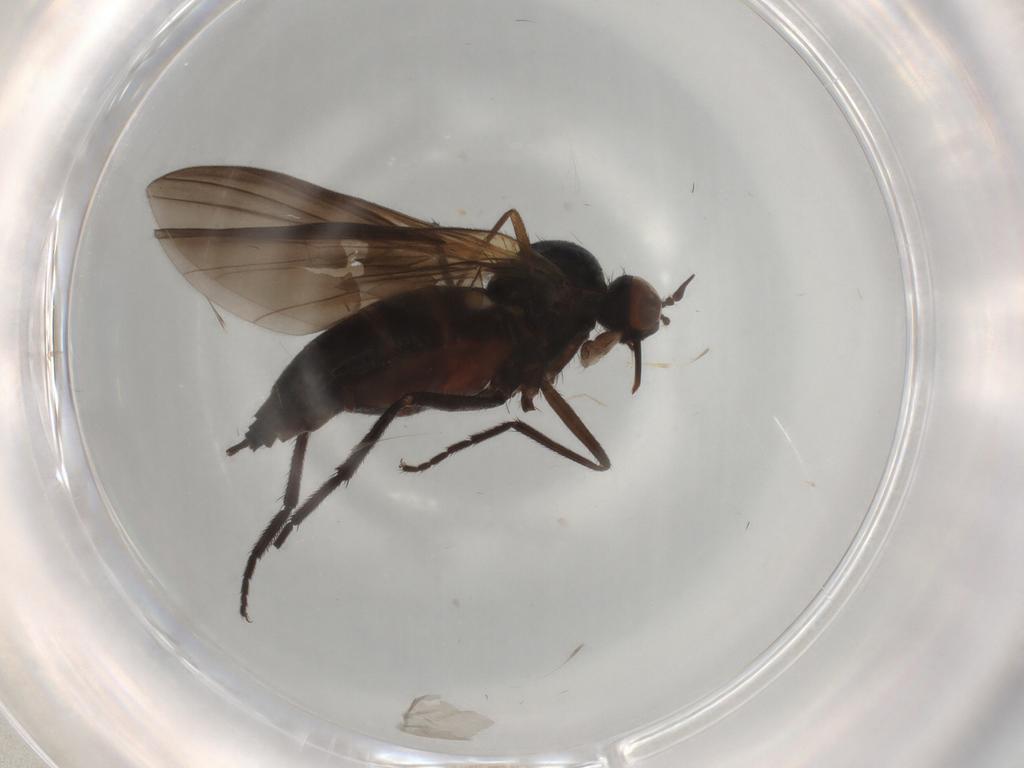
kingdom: Animalia
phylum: Arthropoda
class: Insecta
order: Diptera
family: Empididae
